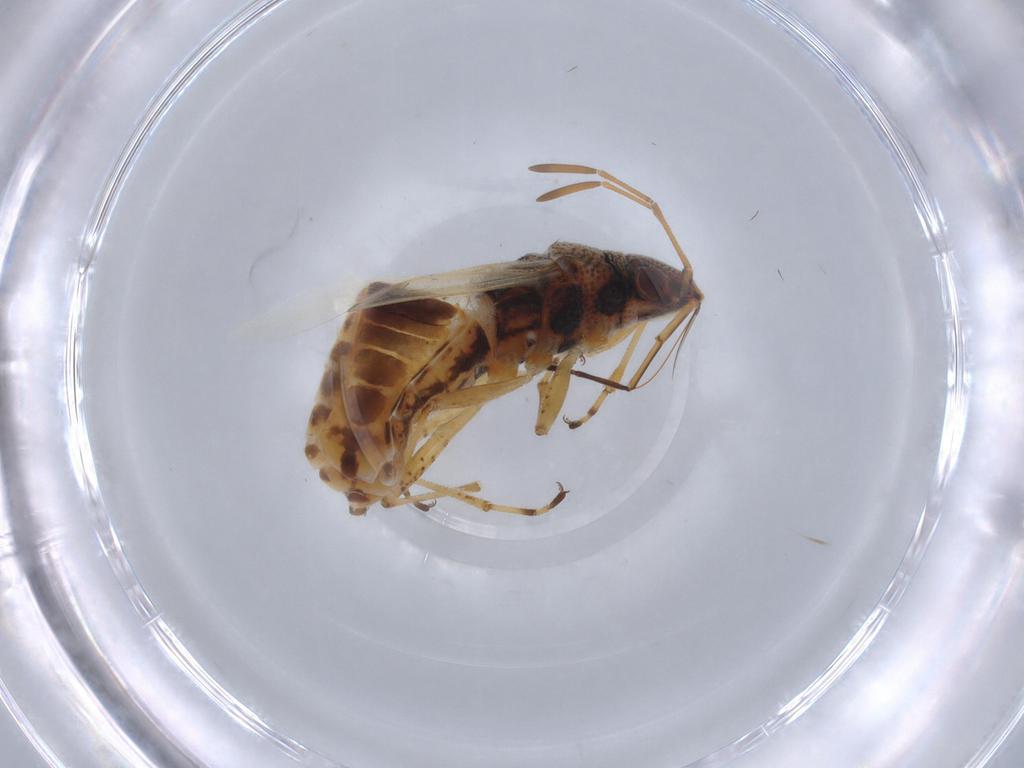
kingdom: Animalia
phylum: Arthropoda
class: Insecta
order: Hemiptera
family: Lygaeidae
